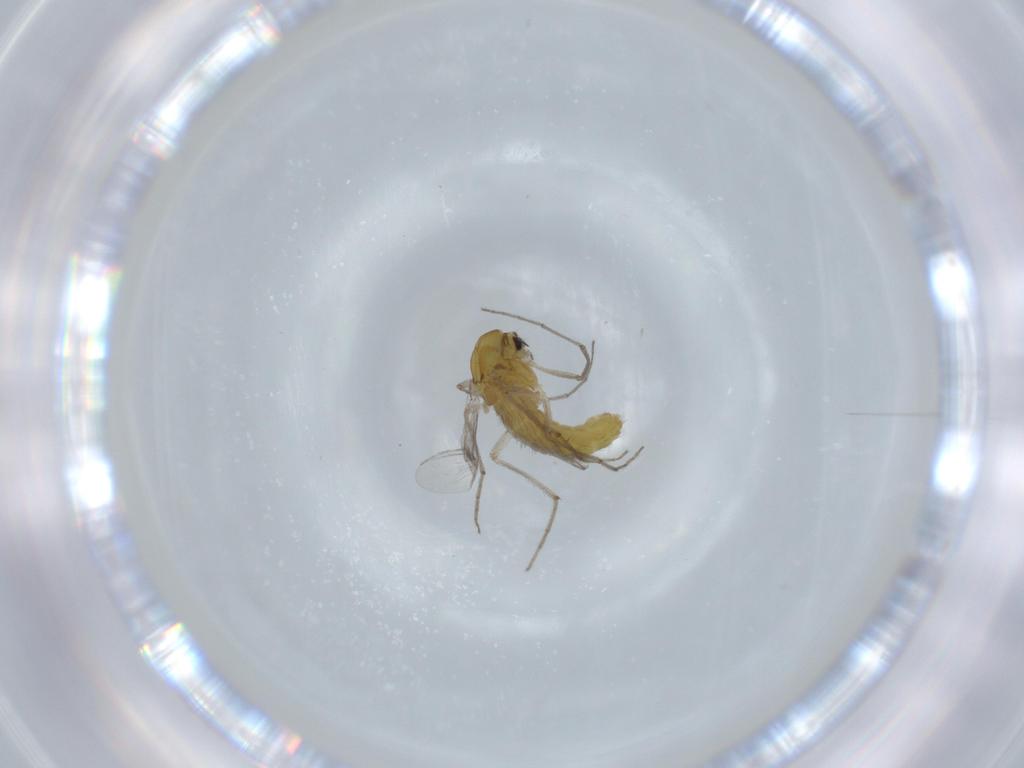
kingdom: Animalia
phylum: Arthropoda
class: Insecta
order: Diptera
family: Chironomidae
